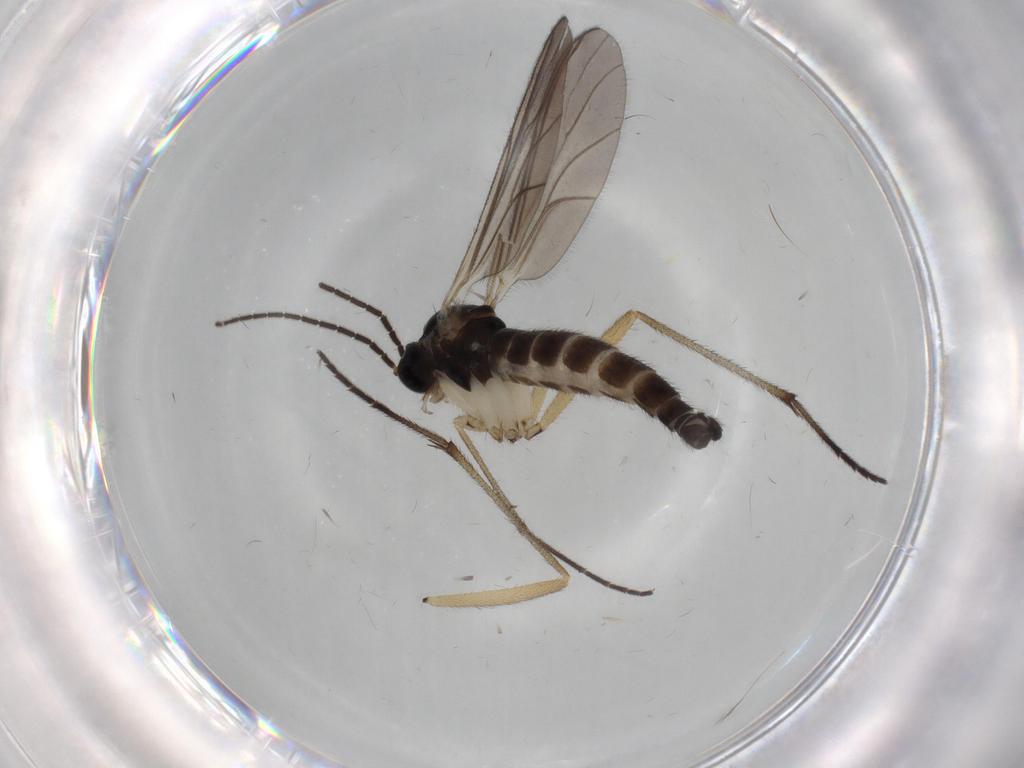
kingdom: Animalia
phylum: Arthropoda
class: Insecta
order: Diptera
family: Sciaridae
